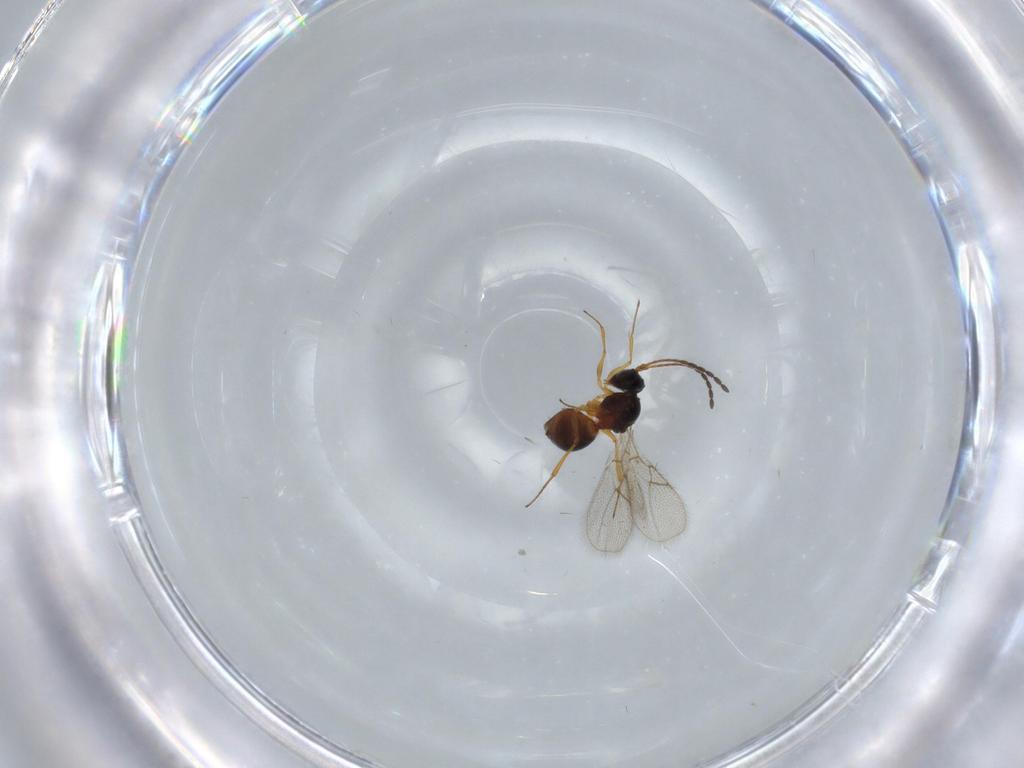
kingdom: Animalia
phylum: Arthropoda
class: Insecta
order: Hymenoptera
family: Figitidae
